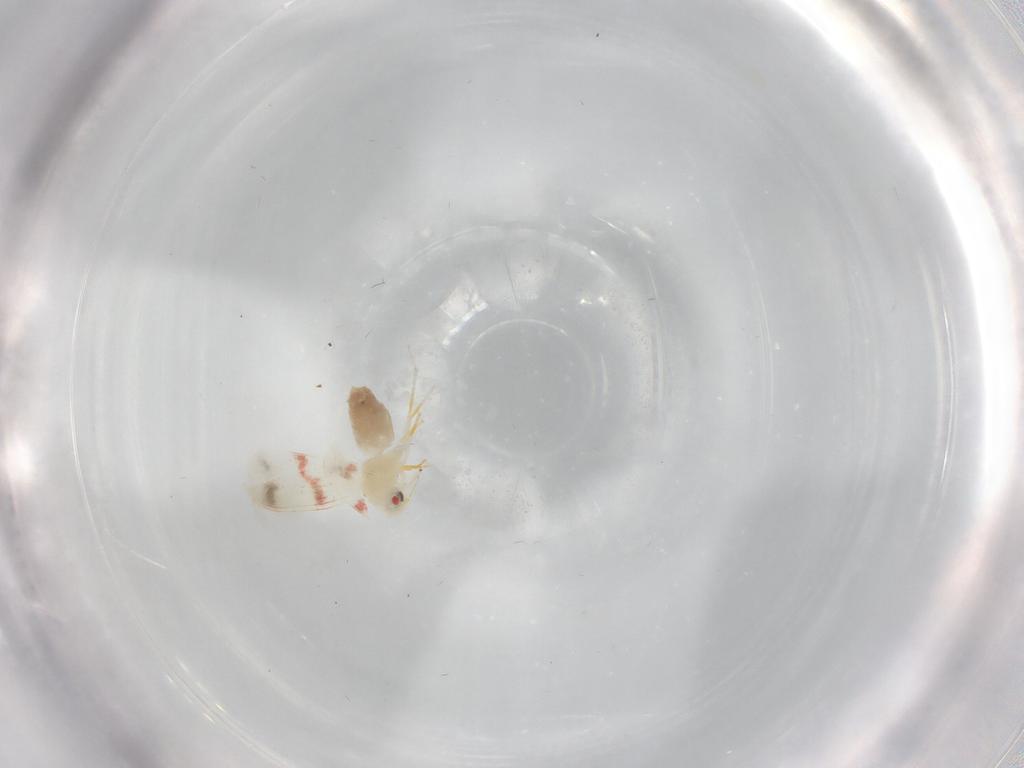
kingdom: Animalia
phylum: Arthropoda
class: Insecta
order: Hemiptera
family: Aleyrodidae
